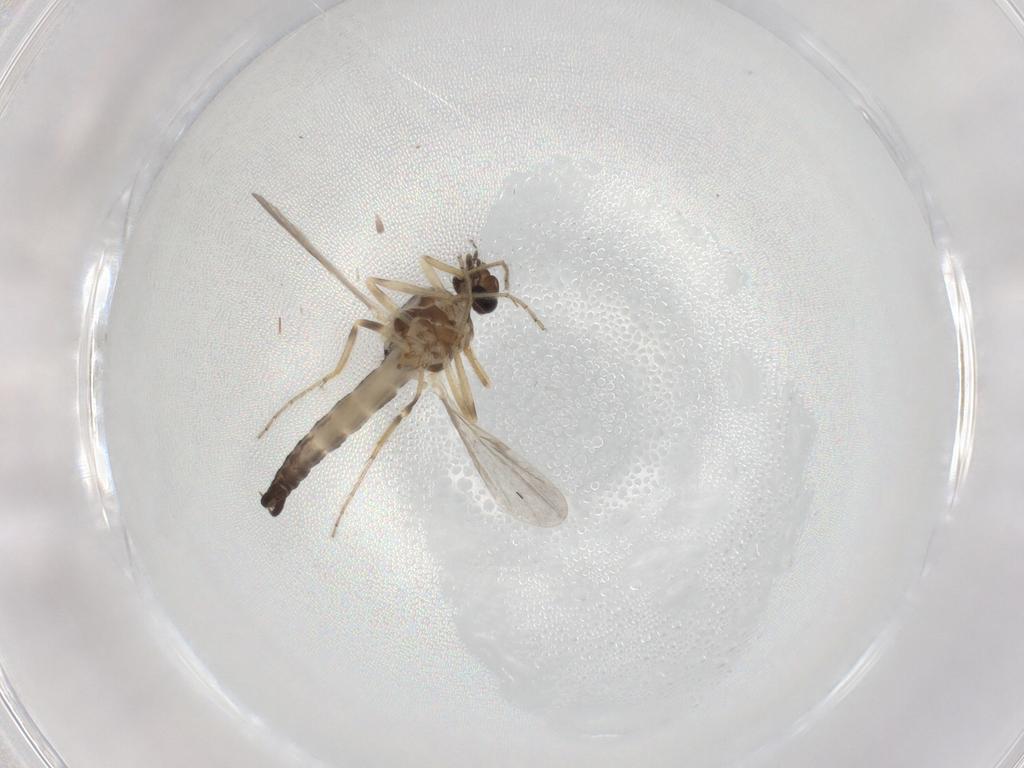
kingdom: Animalia
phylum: Arthropoda
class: Insecta
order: Diptera
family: Ceratopogonidae
